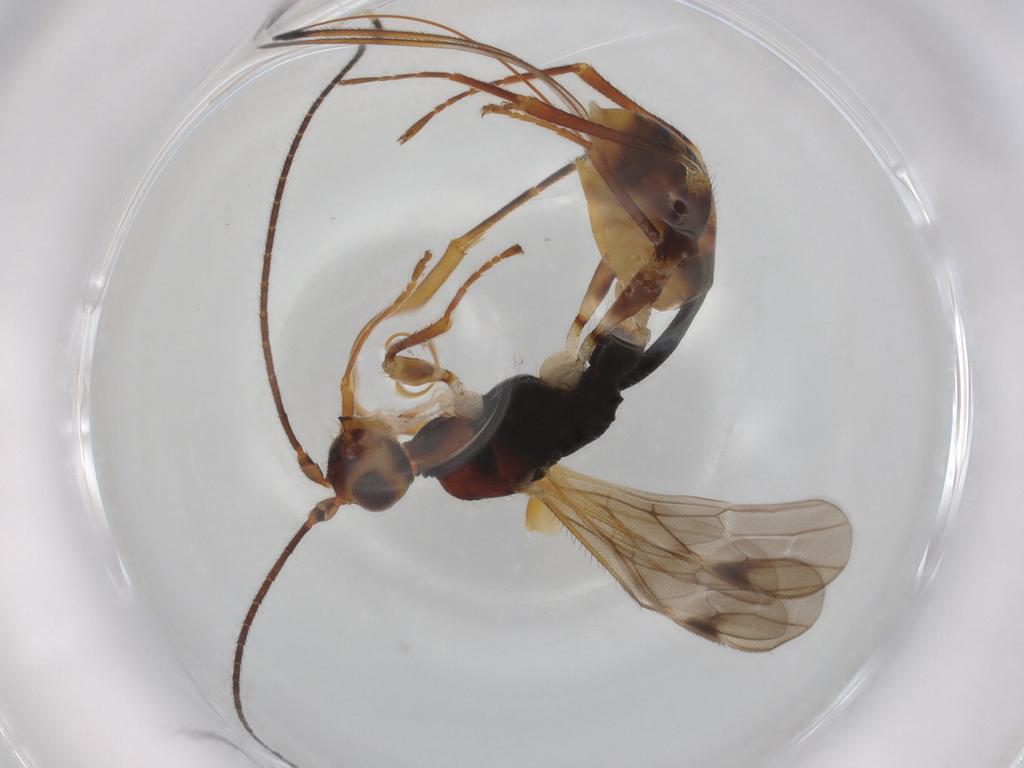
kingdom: Animalia
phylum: Arthropoda
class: Insecta
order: Hymenoptera
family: Braconidae
